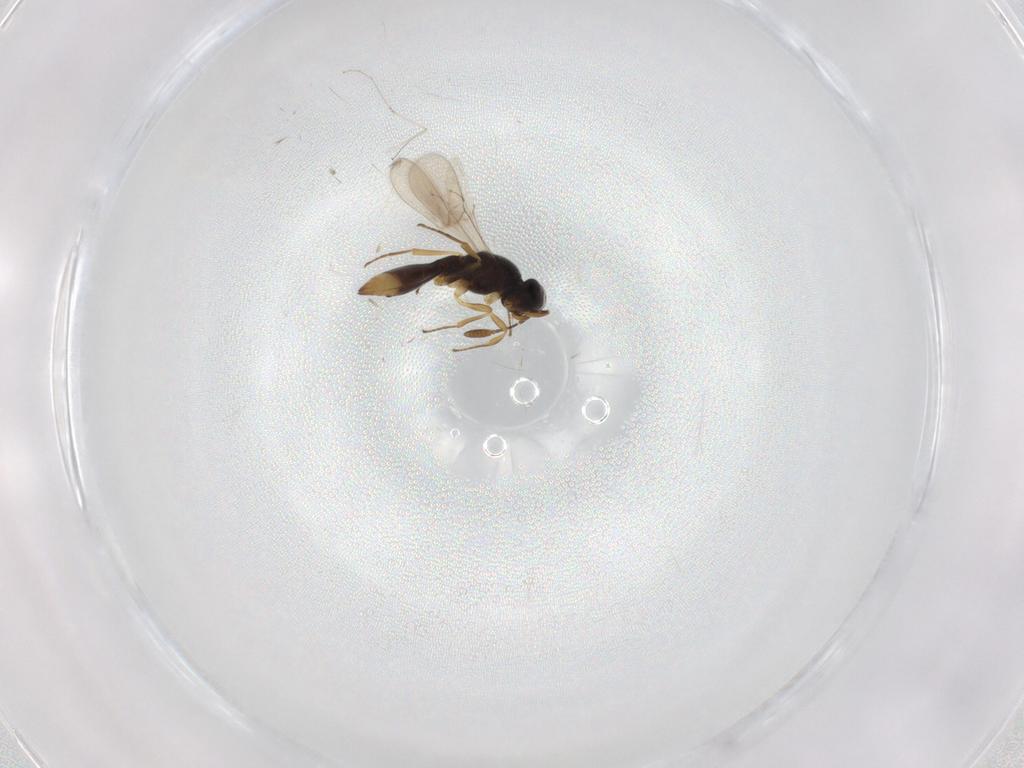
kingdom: Animalia
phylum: Arthropoda
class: Insecta
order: Hymenoptera
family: Scelionidae
